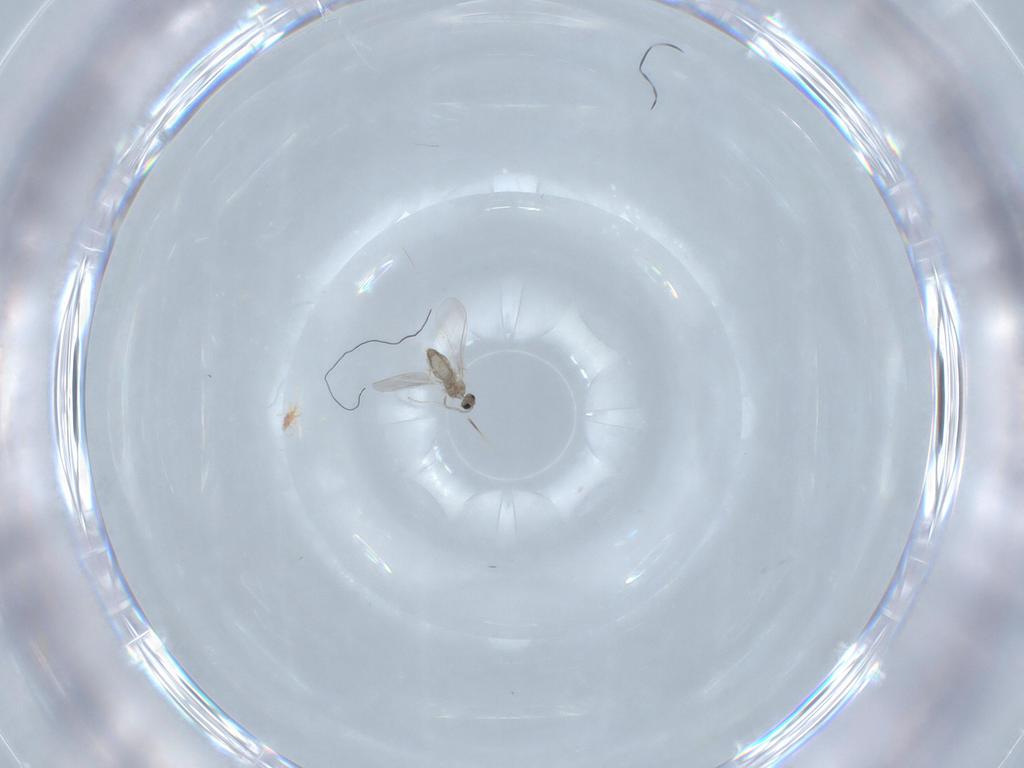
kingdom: Animalia
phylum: Arthropoda
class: Insecta
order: Diptera
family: Cecidomyiidae
